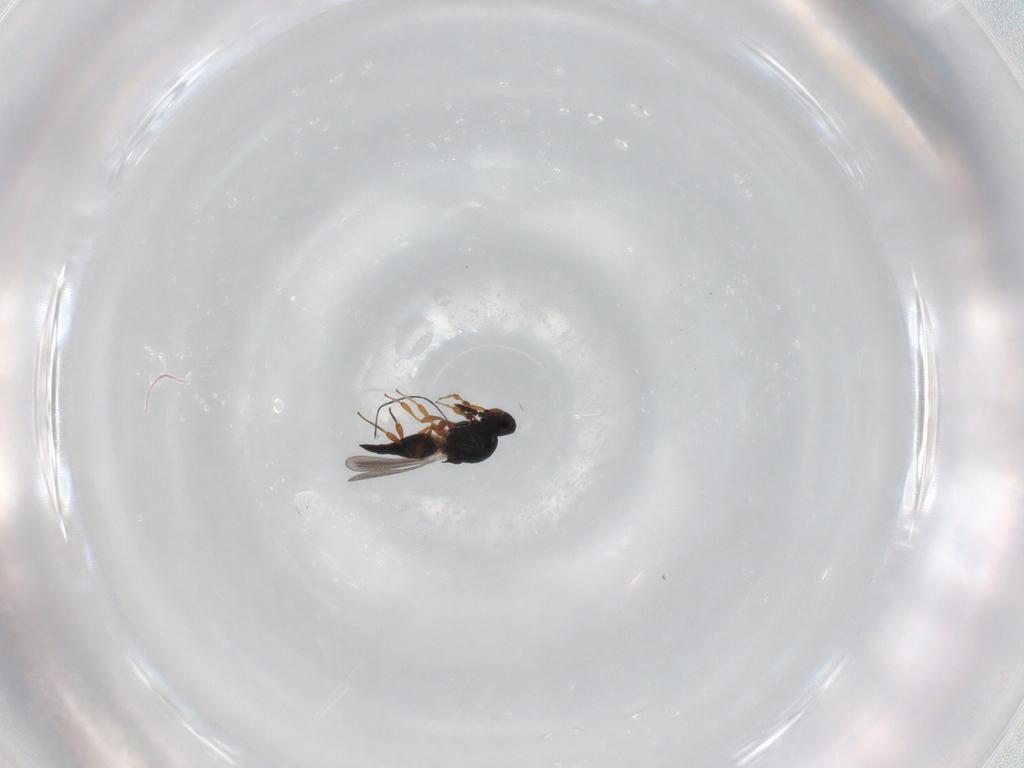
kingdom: Animalia
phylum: Arthropoda
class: Insecta
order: Hymenoptera
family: Platygastridae
